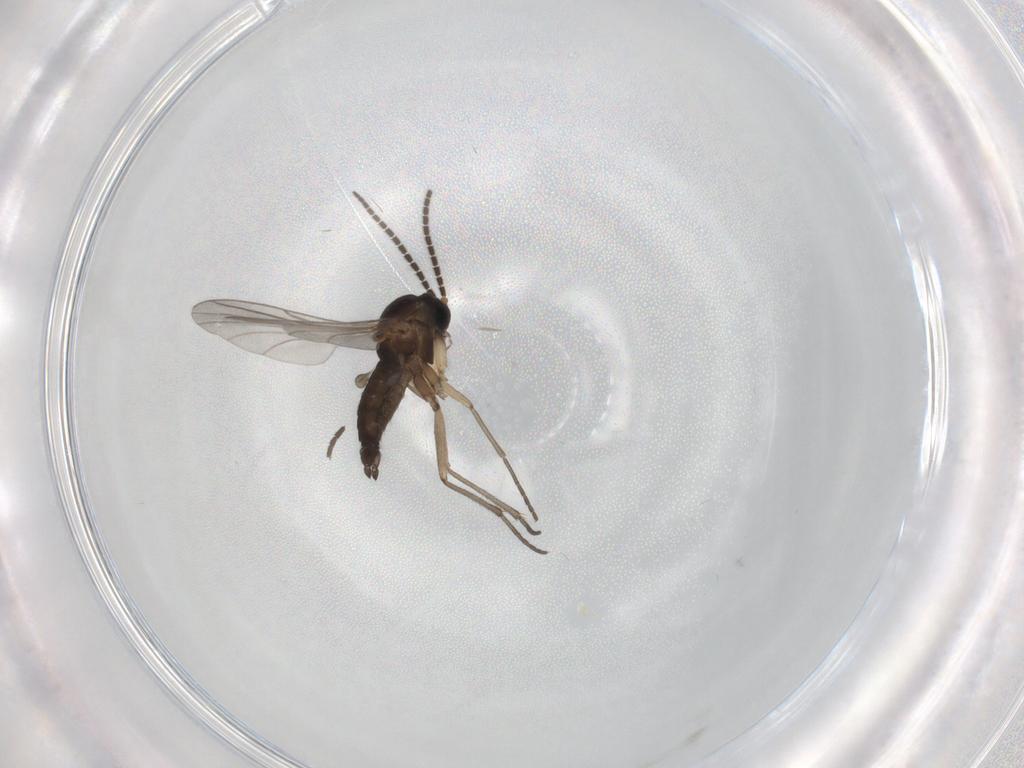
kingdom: Animalia
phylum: Arthropoda
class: Insecta
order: Diptera
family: Sciaridae
